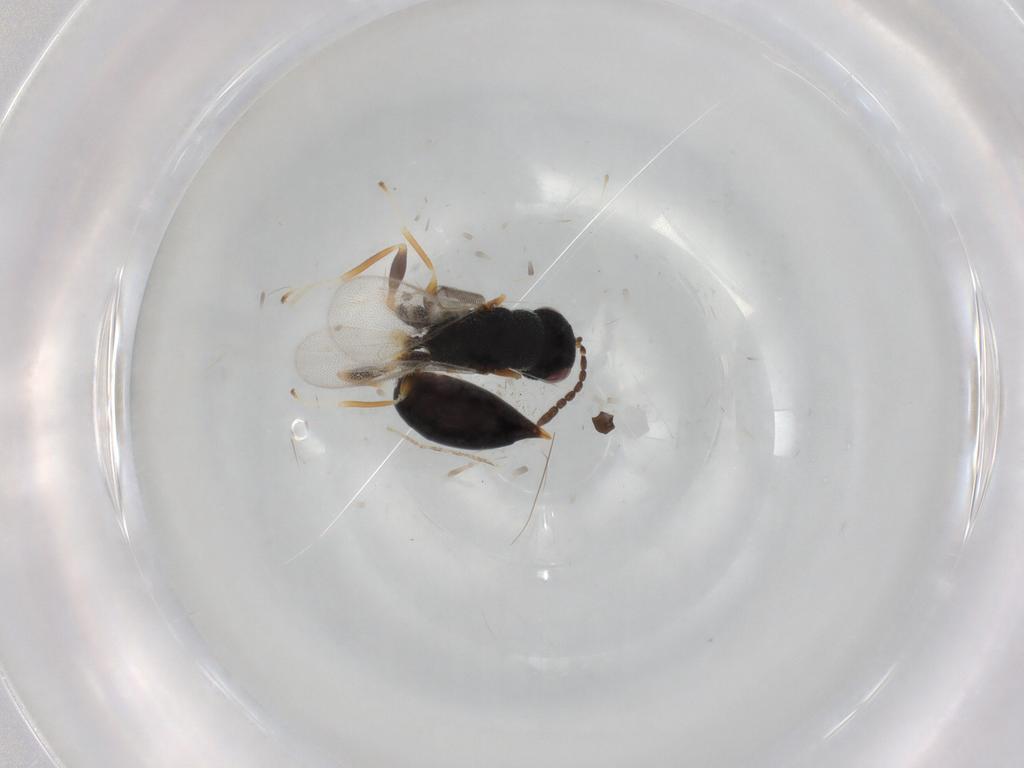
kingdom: Animalia
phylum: Arthropoda
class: Insecta
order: Hymenoptera
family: Eurytomidae
